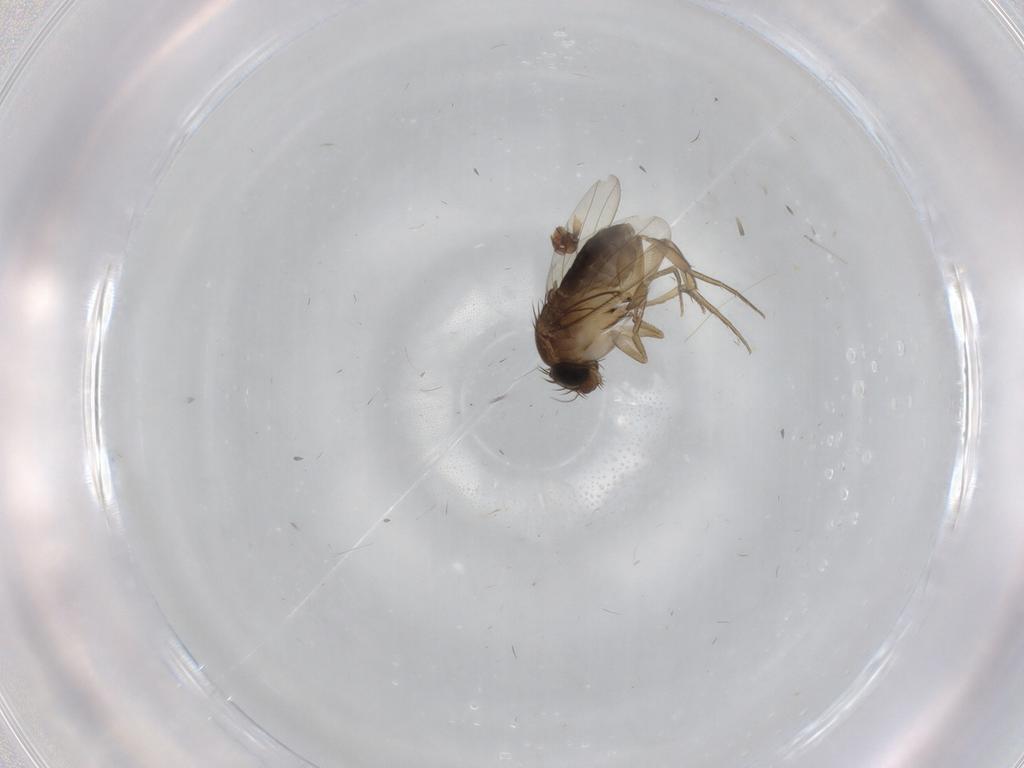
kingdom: Animalia
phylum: Arthropoda
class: Insecta
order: Diptera
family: Phoridae
